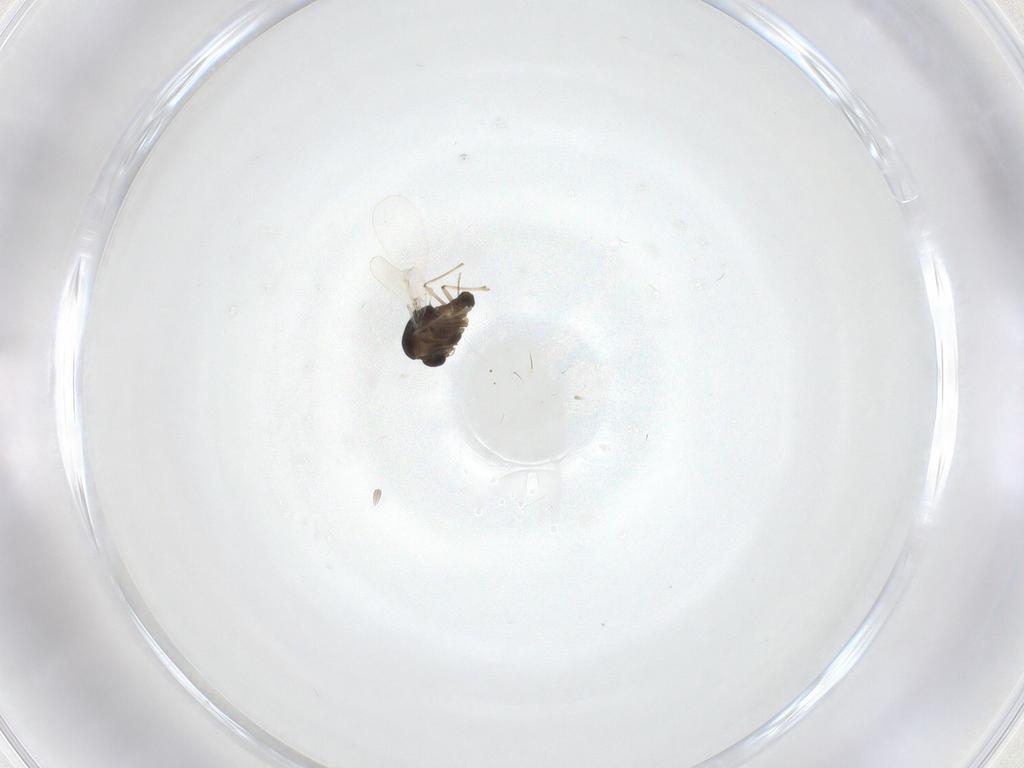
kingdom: Animalia
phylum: Arthropoda
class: Insecta
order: Diptera
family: Chironomidae
